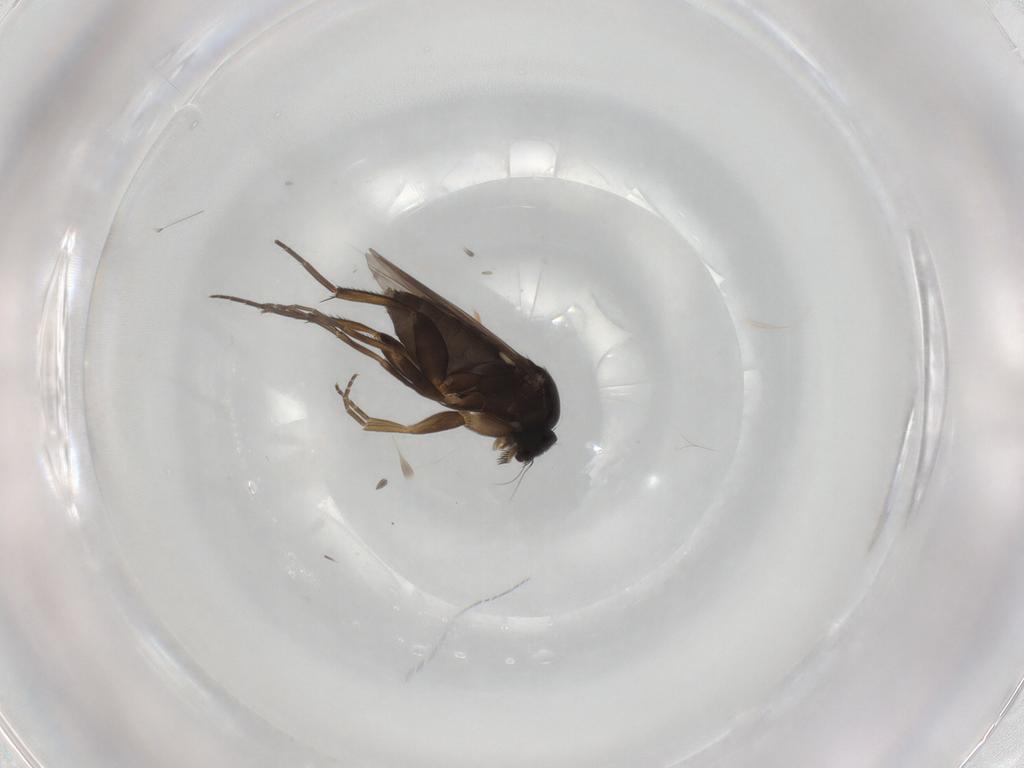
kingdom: Animalia
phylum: Arthropoda
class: Insecta
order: Diptera
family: Phoridae
